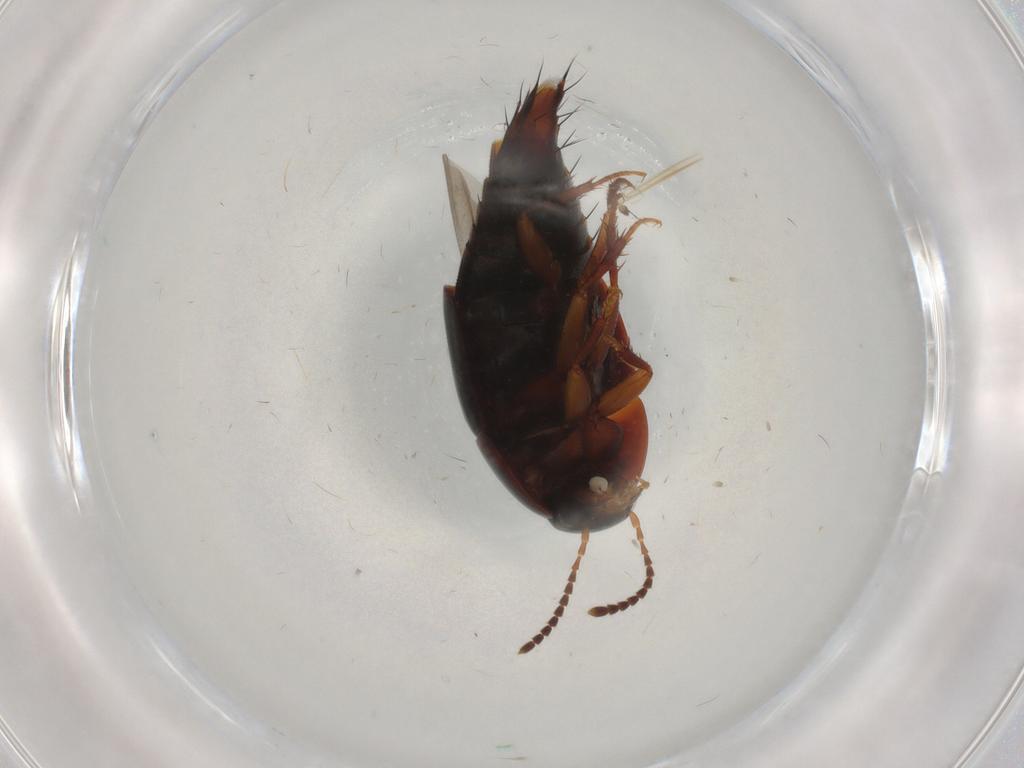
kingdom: Animalia
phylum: Arthropoda
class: Insecta
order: Coleoptera
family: Staphylinidae
